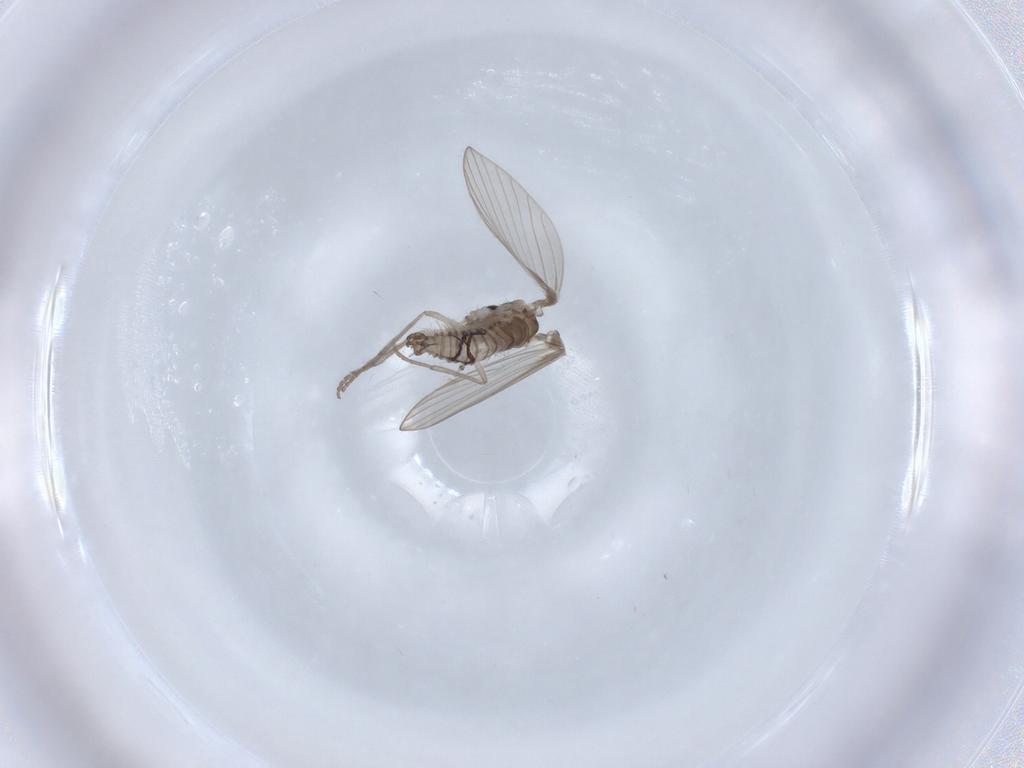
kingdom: Animalia
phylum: Arthropoda
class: Insecta
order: Diptera
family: Psychodidae
